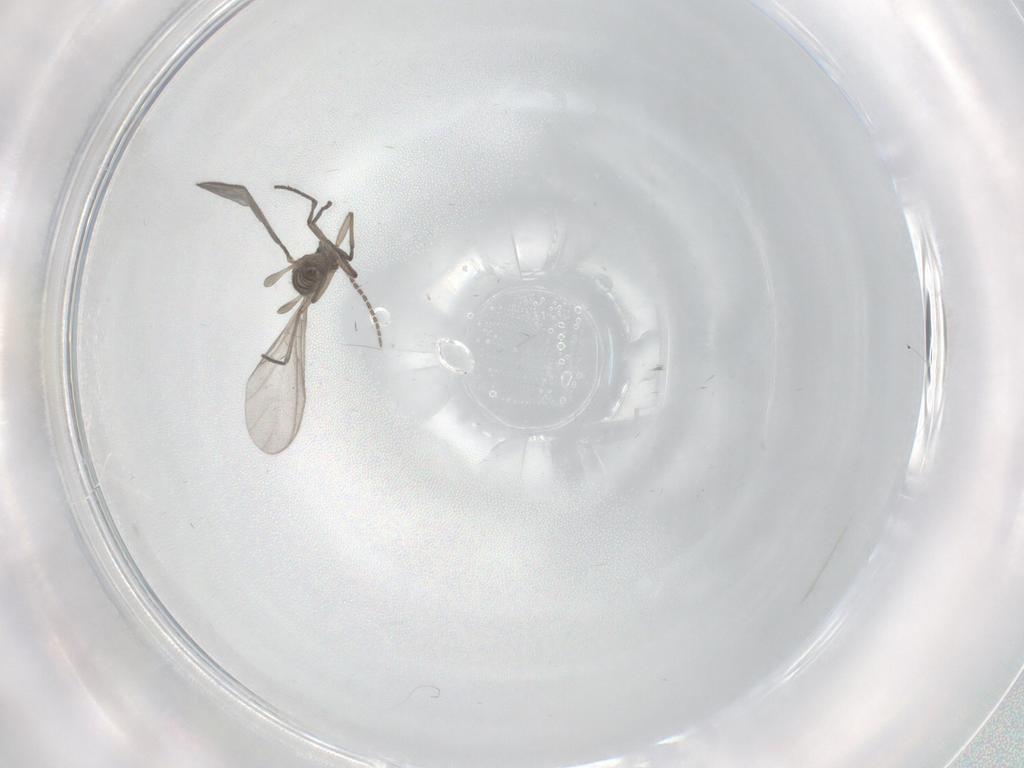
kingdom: Animalia
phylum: Arthropoda
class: Insecta
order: Diptera
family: Sciaridae
